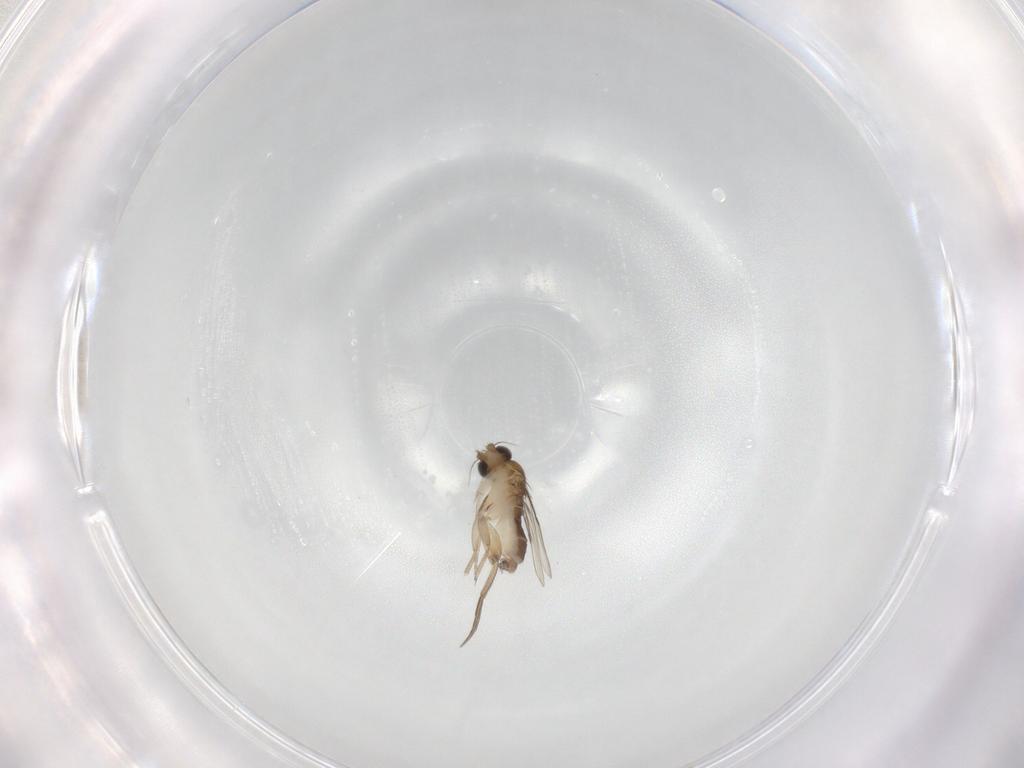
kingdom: Animalia
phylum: Arthropoda
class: Insecta
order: Diptera
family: Phoridae
